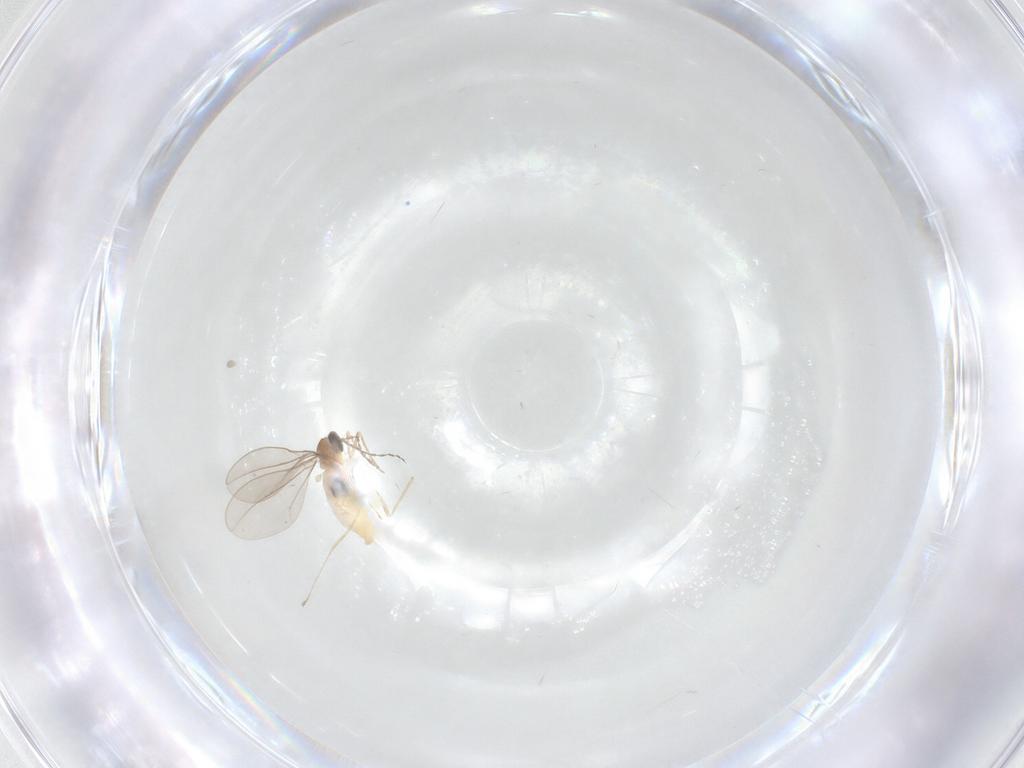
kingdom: Animalia
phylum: Arthropoda
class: Insecta
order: Diptera
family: Cecidomyiidae
